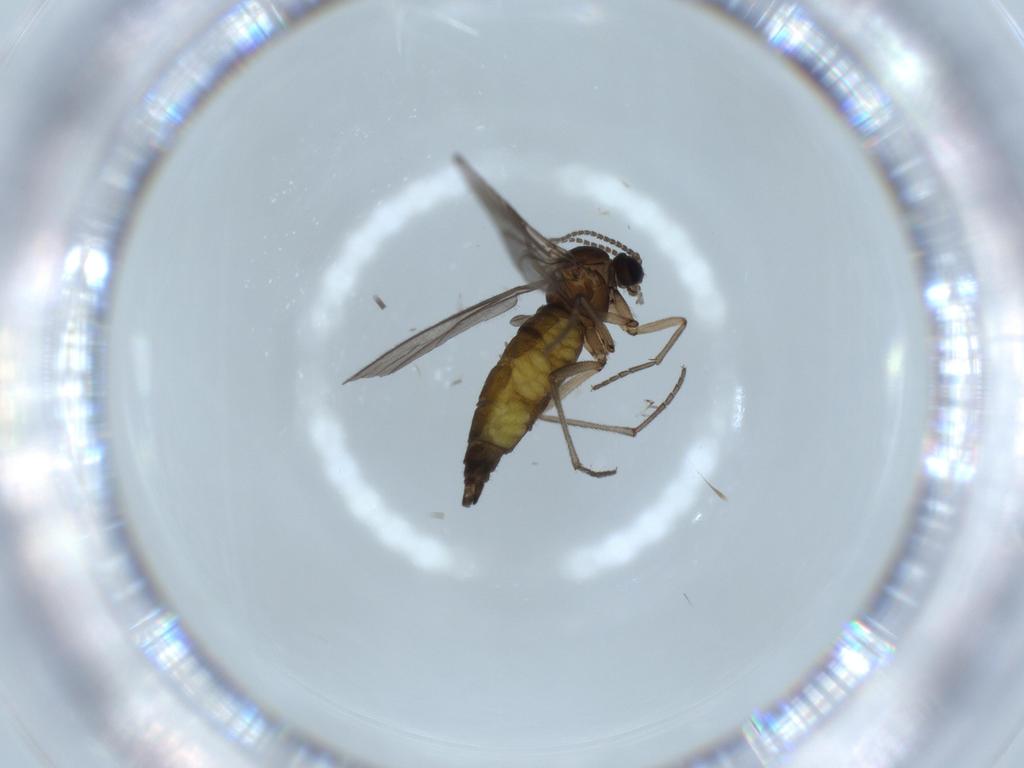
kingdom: Animalia
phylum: Arthropoda
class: Insecta
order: Diptera
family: Sciaridae
